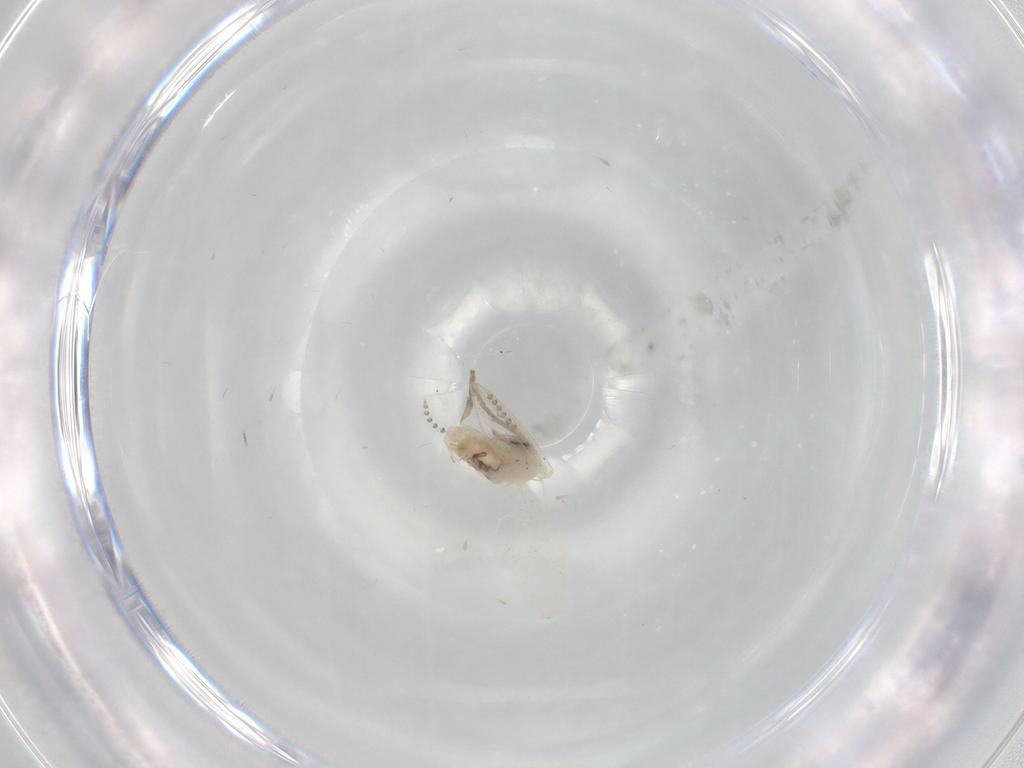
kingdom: Animalia
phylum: Arthropoda
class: Insecta
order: Diptera
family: Psychodidae
